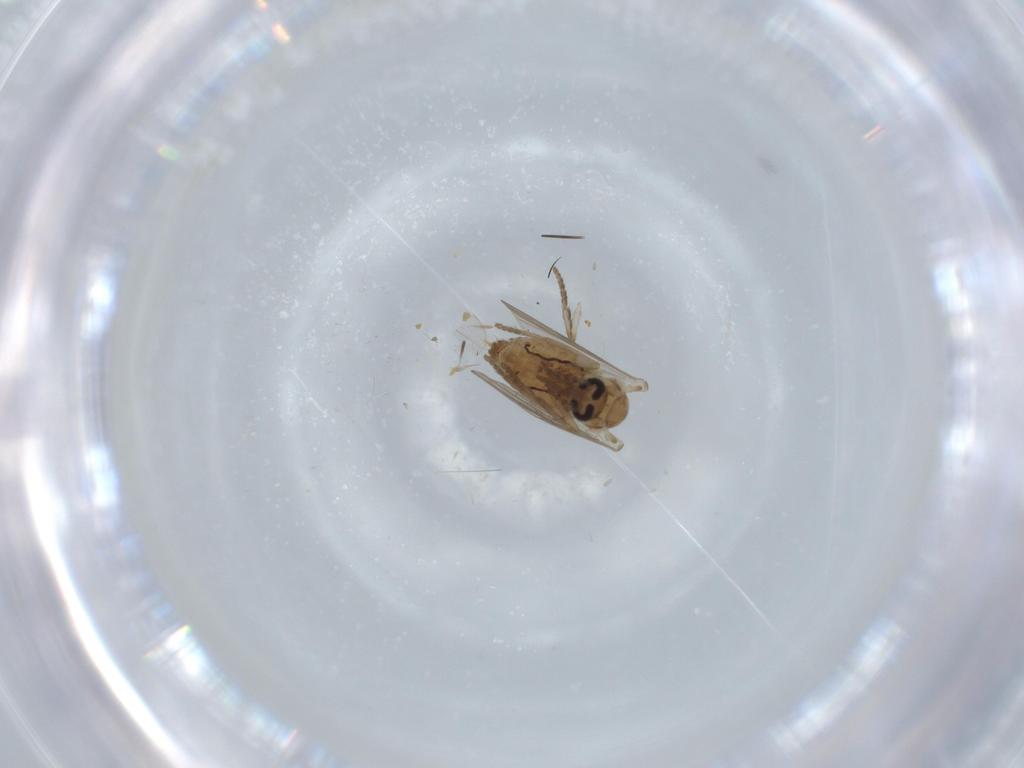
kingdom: Animalia
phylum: Arthropoda
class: Insecta
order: Diptera
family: Psychodidae
